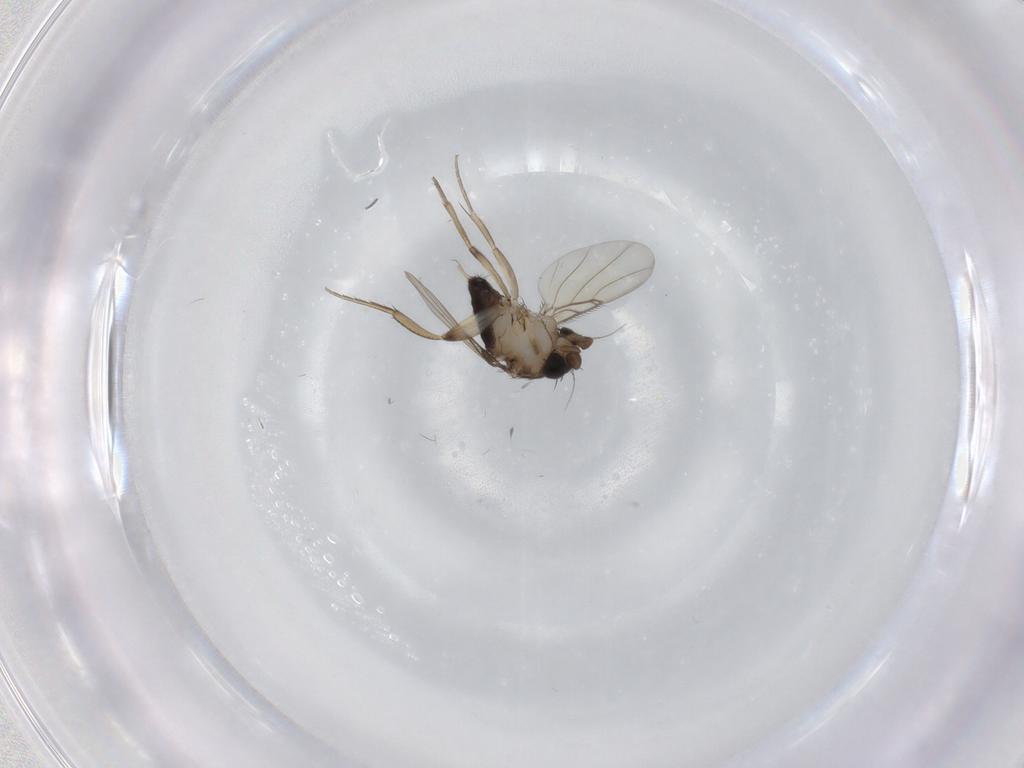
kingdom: Animalia
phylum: Arthropoda
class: Insecta
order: Diptera
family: Phoridae
